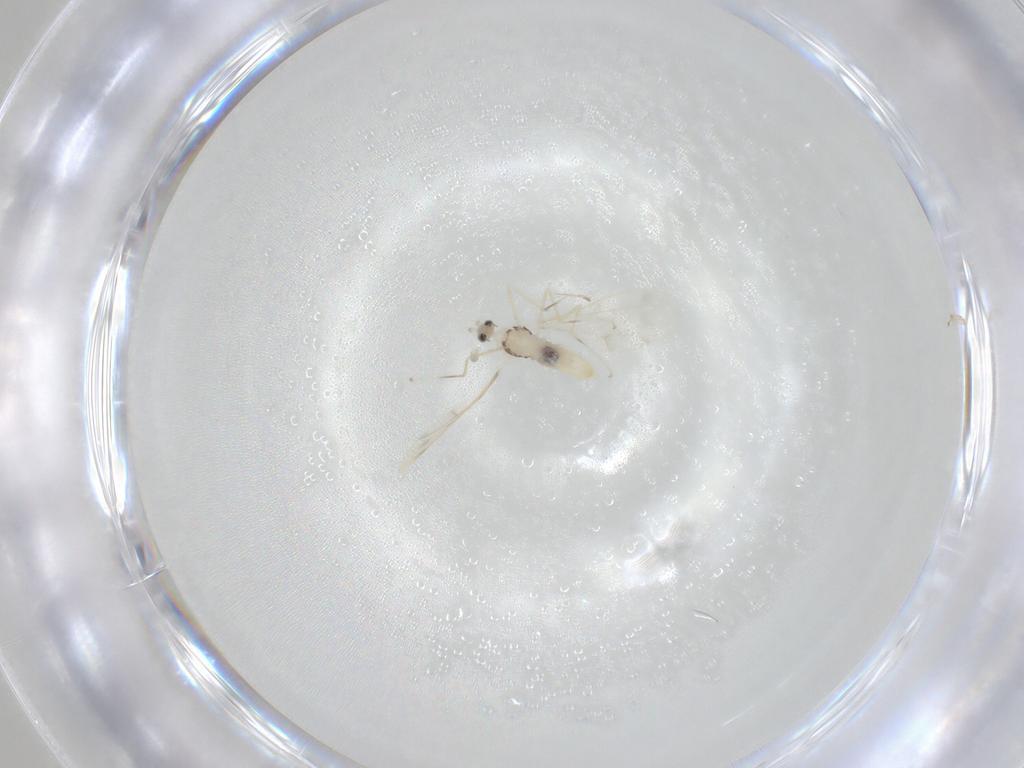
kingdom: Animalia
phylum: Arthropoda
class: Insecta
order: Diptera
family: Cecidomyiidae
